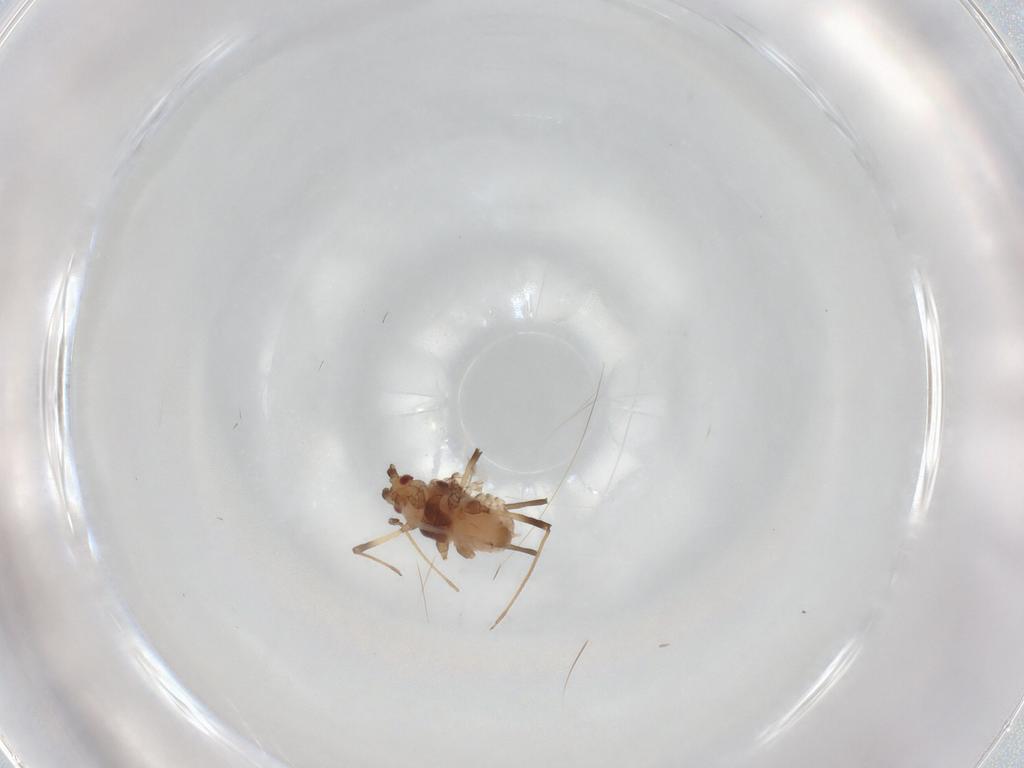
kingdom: Animalia
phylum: Arthropoda
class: Insecta
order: Hemiptera
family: Aphididae
